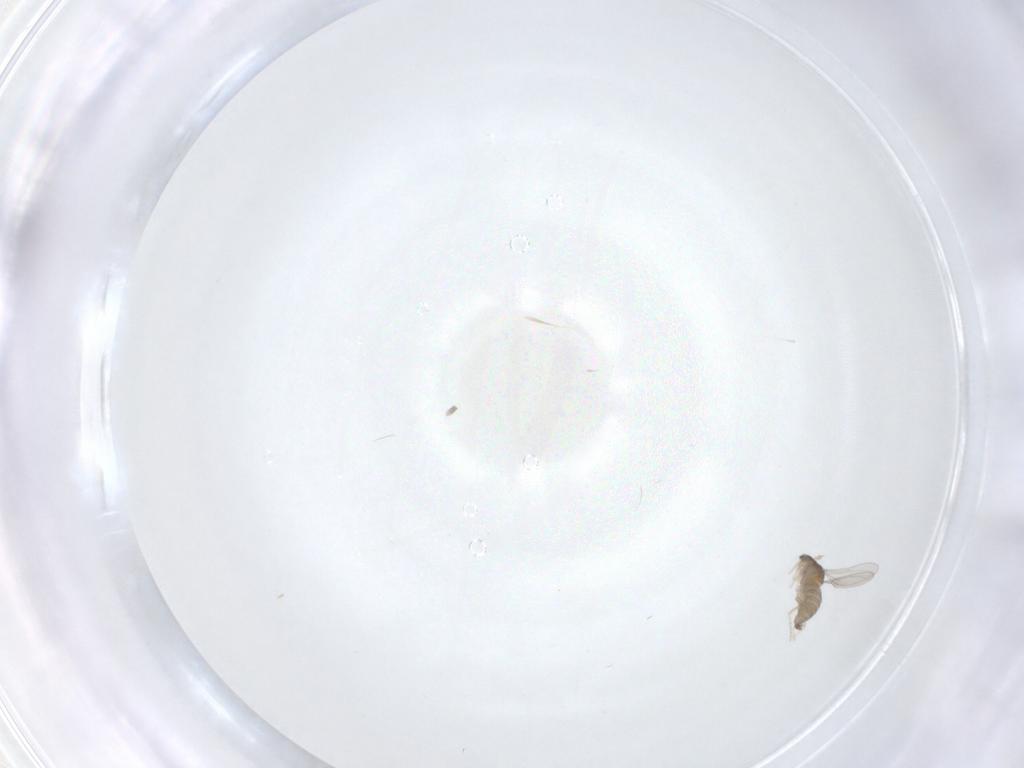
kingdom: Animalia
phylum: Arthropoda
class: Insecta
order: Diptera
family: Cecidomyiidae
